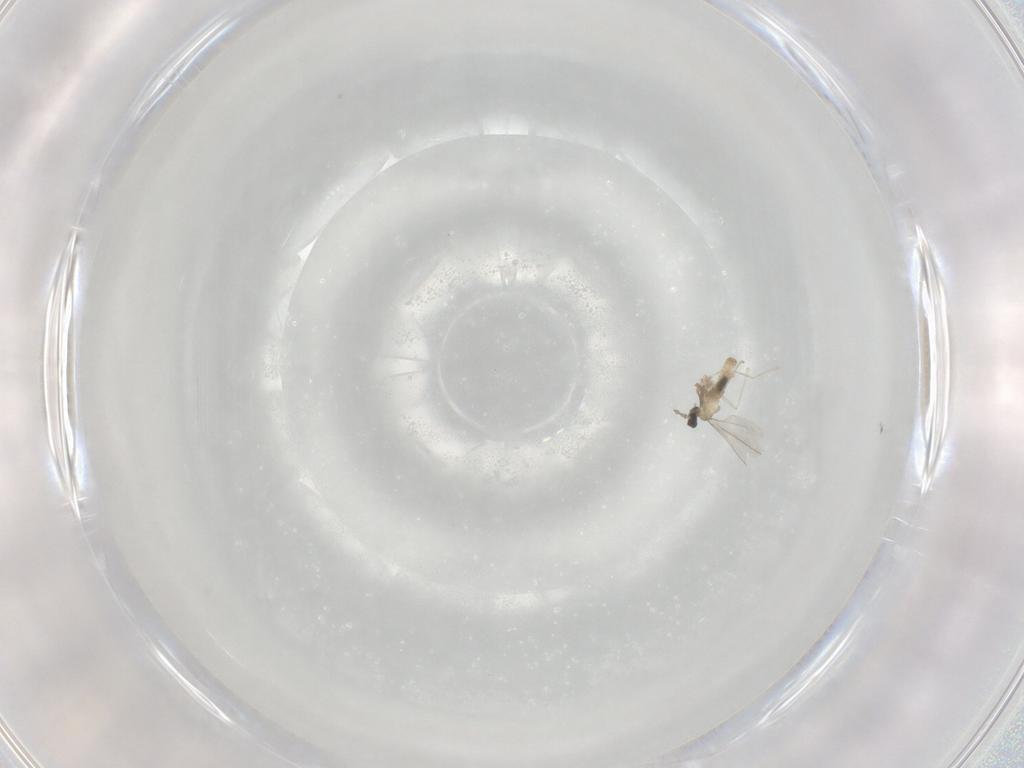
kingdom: Animalia
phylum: Arthropoda
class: Insecta
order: Diptera
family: Cecidomyiidae
